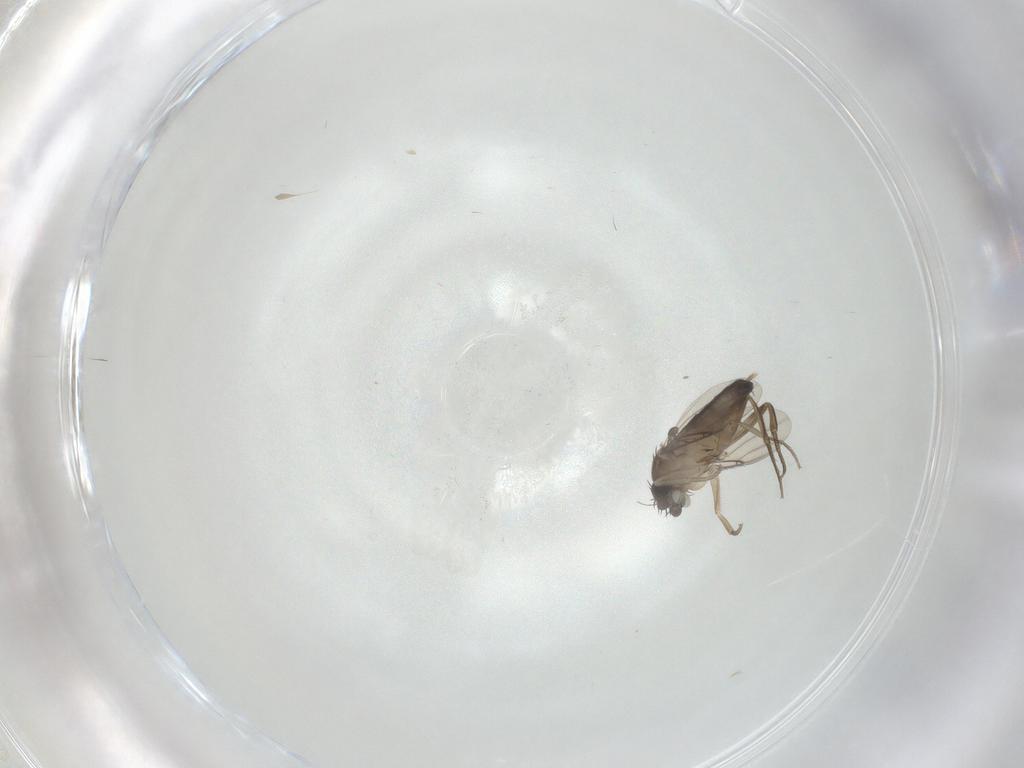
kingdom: Animalia
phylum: Arthropoda
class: Insecta
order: Diptera
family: Phoridae
